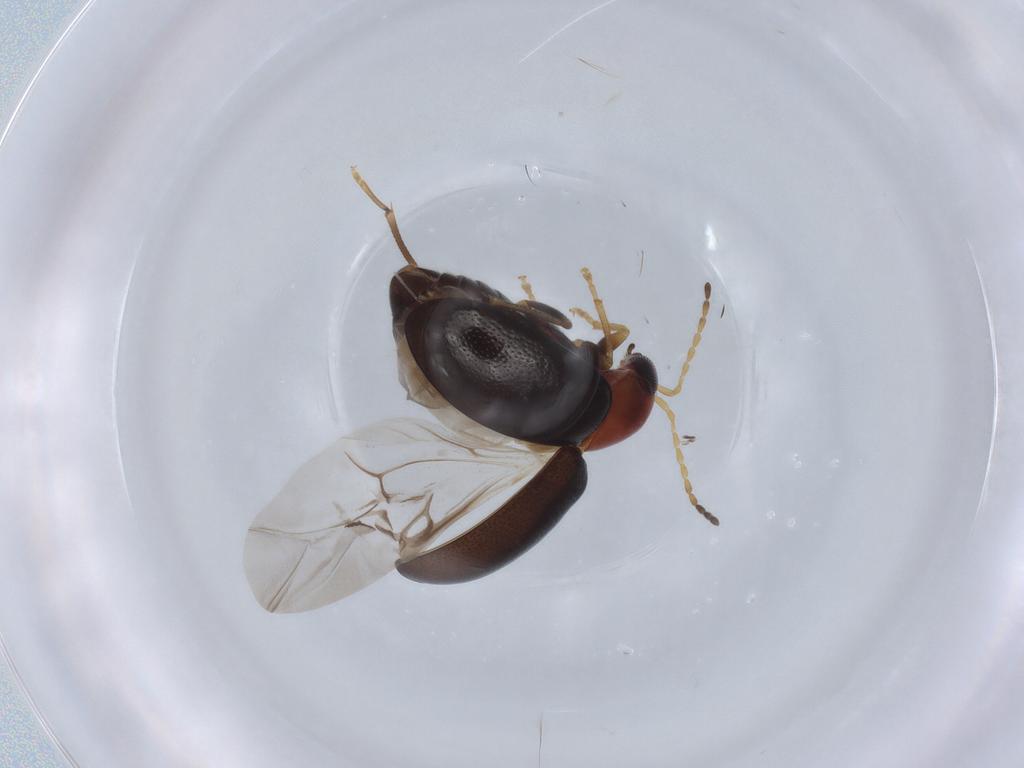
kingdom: Animalia
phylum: Arthropoda
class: Insecta
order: Coleoptera
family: Chrysomelidae
